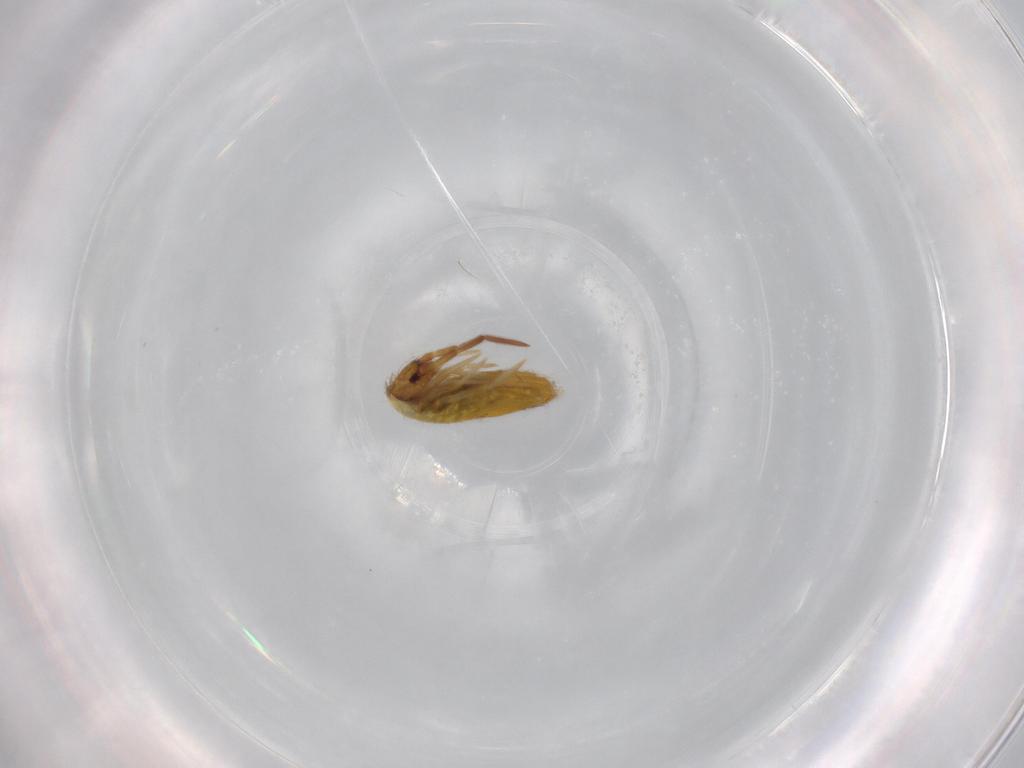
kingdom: Animalia
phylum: Arthropoda
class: Collembola
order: Entomobryomorpha
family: Entomobryidae
